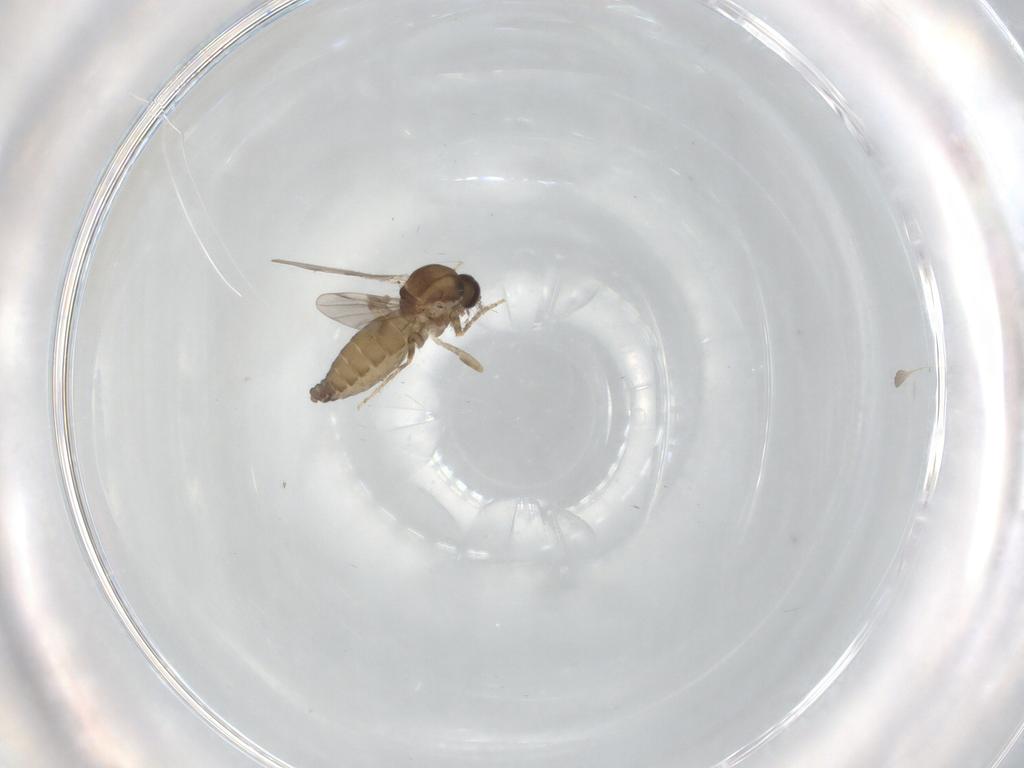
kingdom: Animalia
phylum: Arthropoda
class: Insecta
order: Diptera
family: Ceratopogonidae
